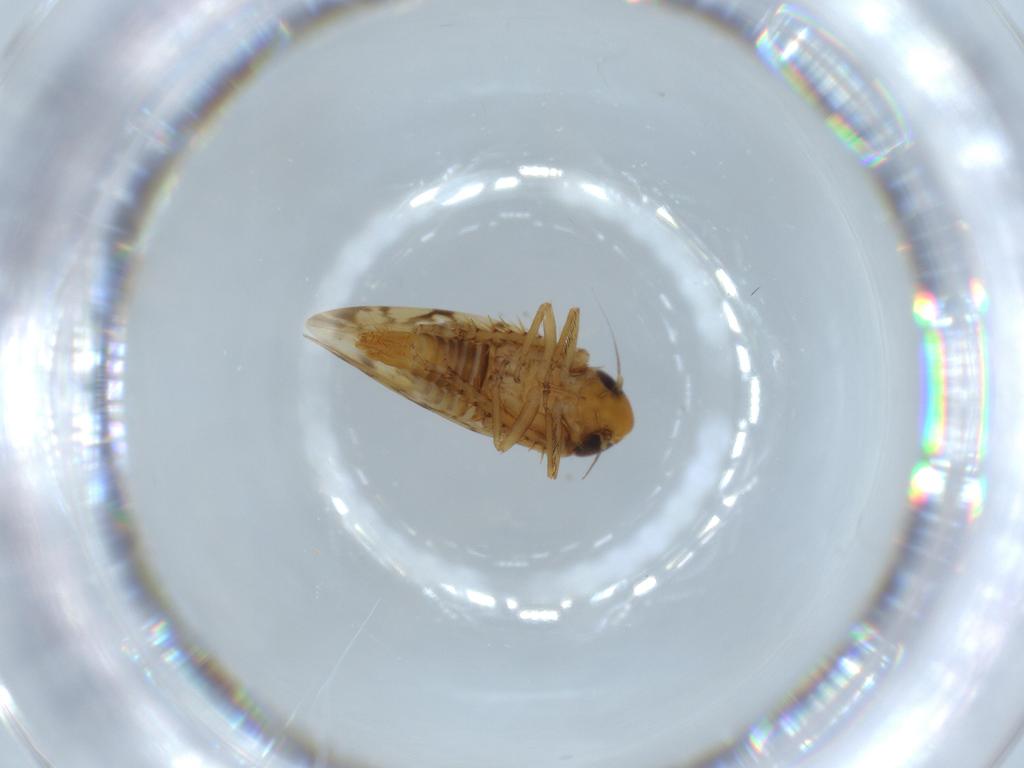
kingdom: Animalia
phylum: Arthropoda
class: Insecta
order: Hemiptera
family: Cicadellidae
